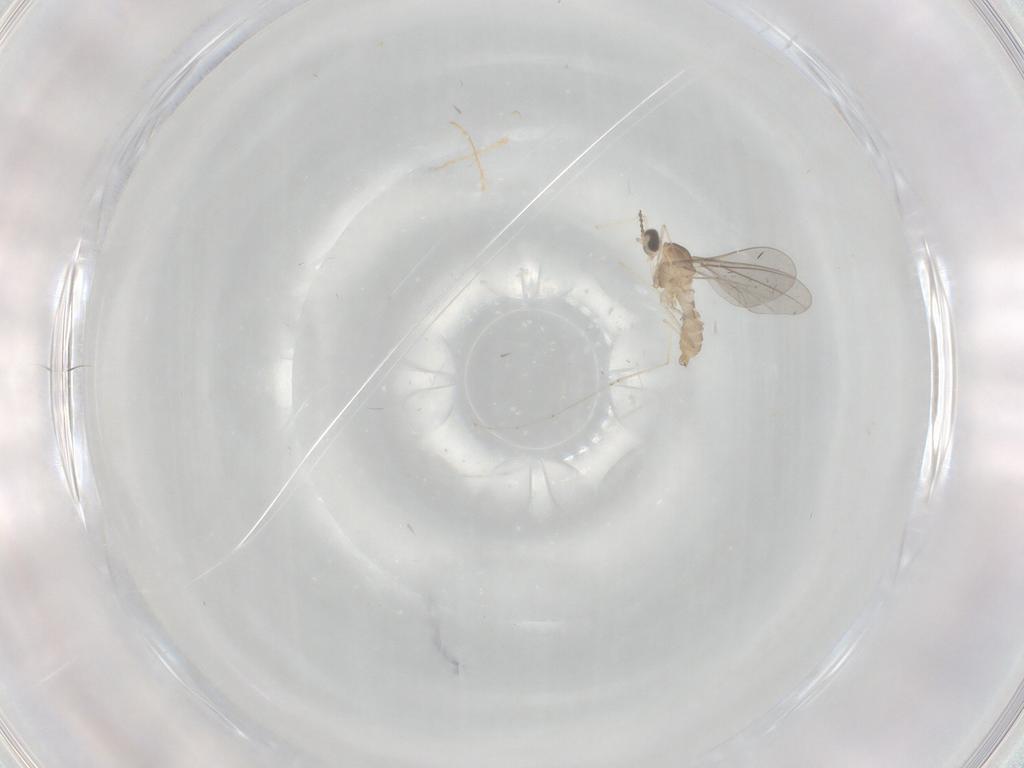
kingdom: Animalia
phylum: Arthropoda
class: Insecta
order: Diptera
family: Cecidomyiidae
